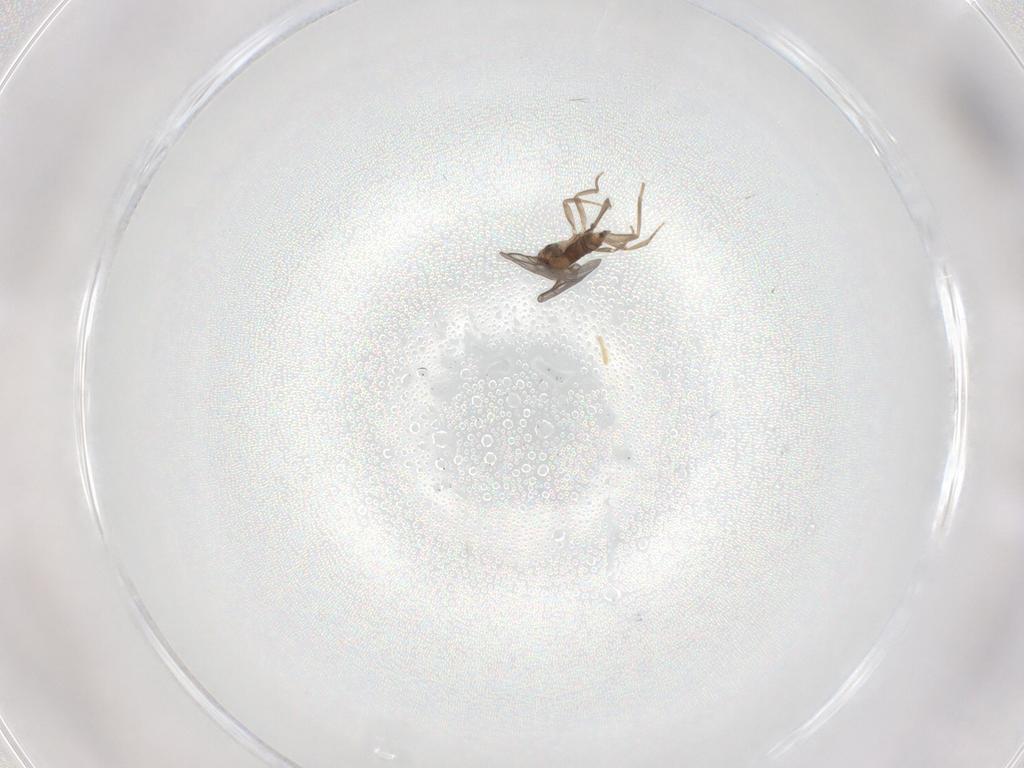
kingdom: Animalia
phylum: Arthropoda
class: Insecta
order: Diptera
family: Cecidomyiidae
